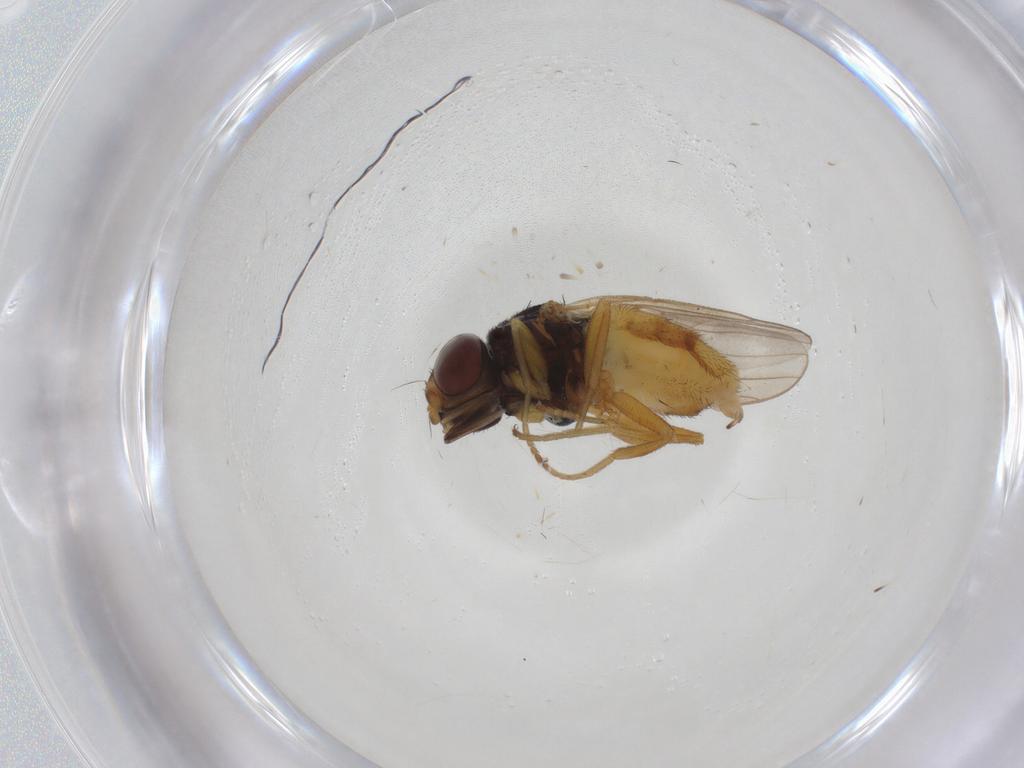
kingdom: Animalia
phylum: Arthropoda
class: Insecta
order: Diptera
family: Chloropidae
